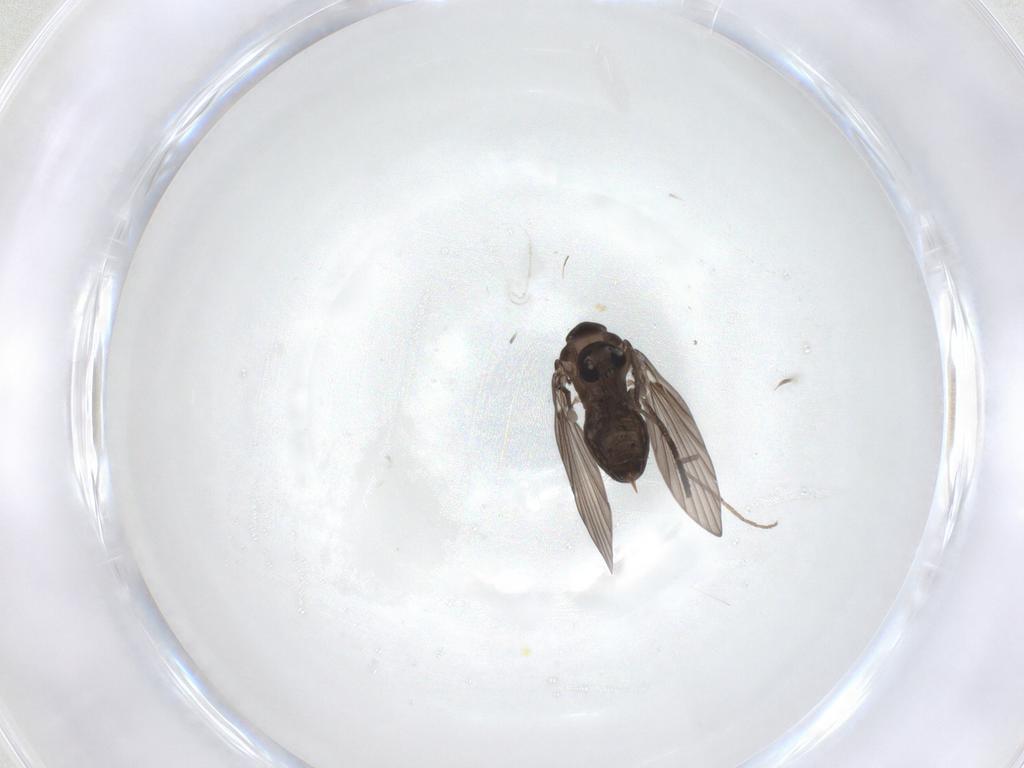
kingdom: Animalia
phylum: Arthropoda
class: Insecta
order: Diptera
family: Psychodidae
